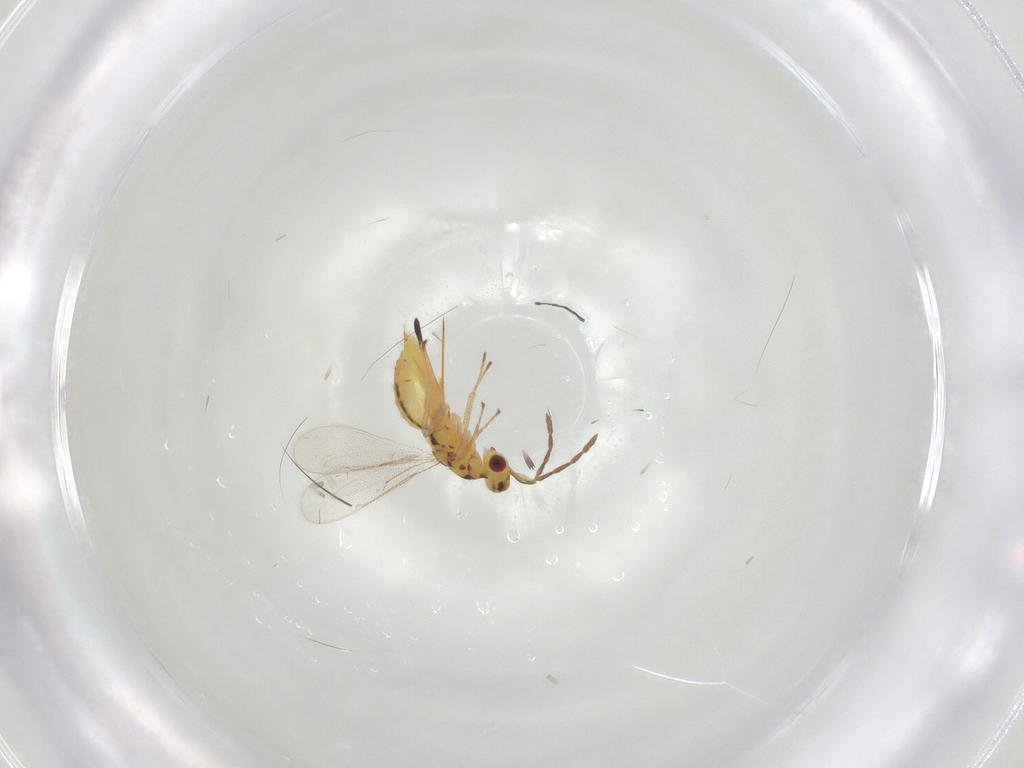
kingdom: Animalia
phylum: Arthropoda
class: Insecta
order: Hymenoptera
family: Eulophidae
